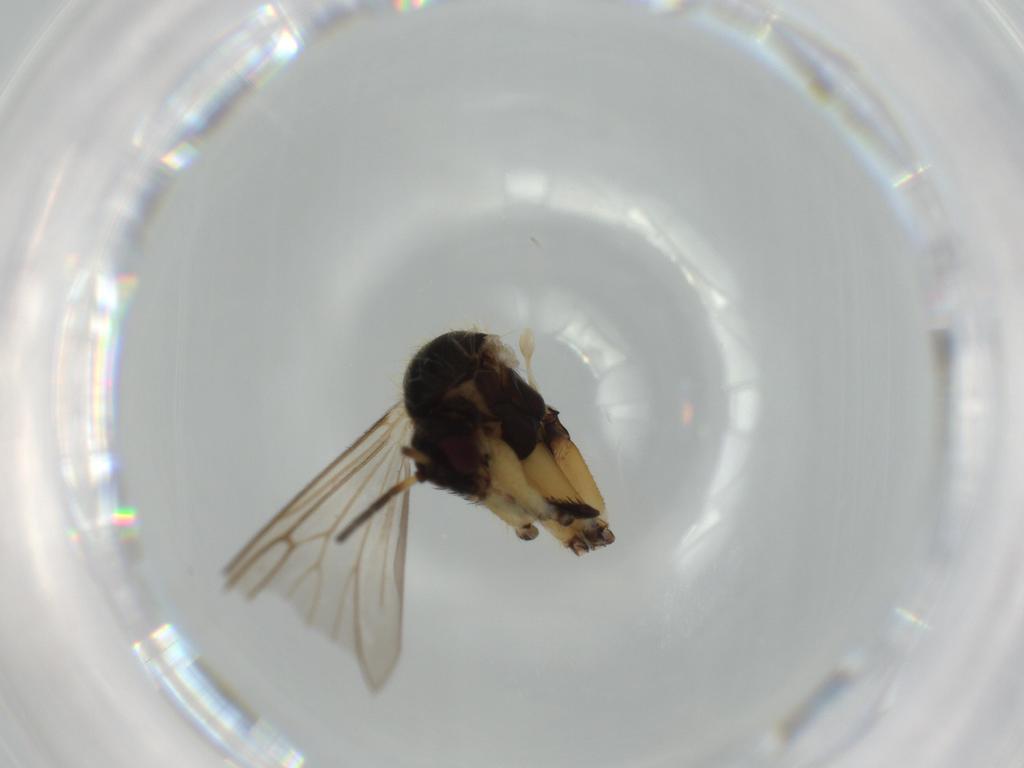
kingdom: Animalia
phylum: Arthropoda
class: Insecta
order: Diptera
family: Syrphidae
